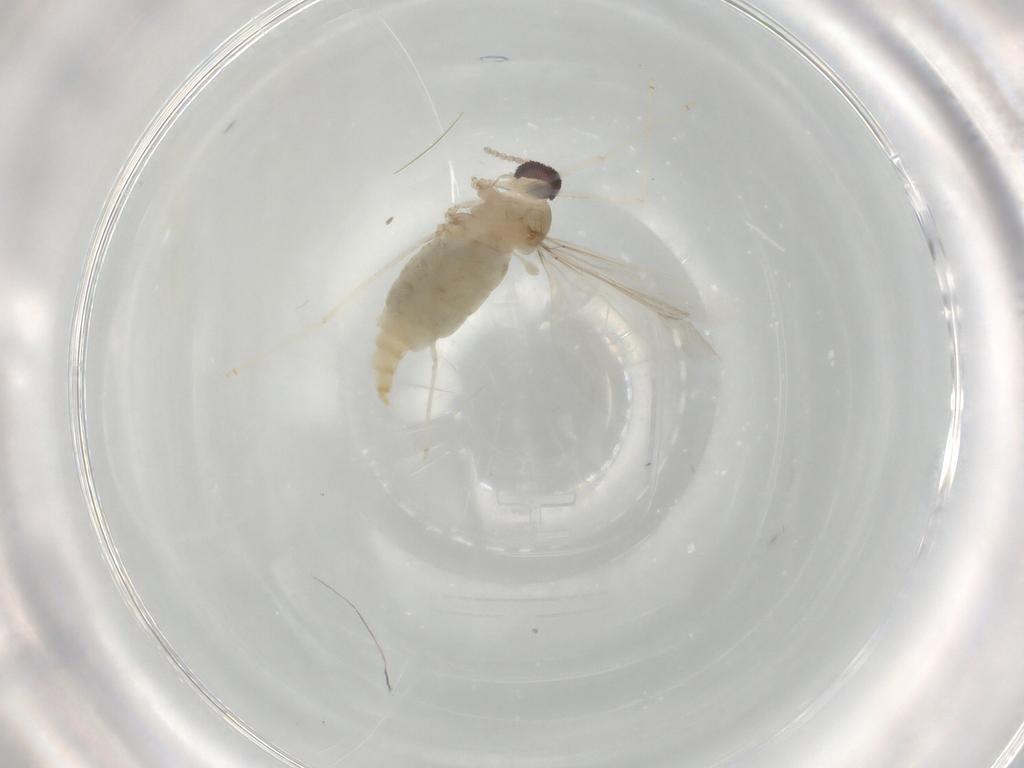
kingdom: Animalia
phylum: Arthropoda
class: Insecta
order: Diptera
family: Cecidomyiidae
